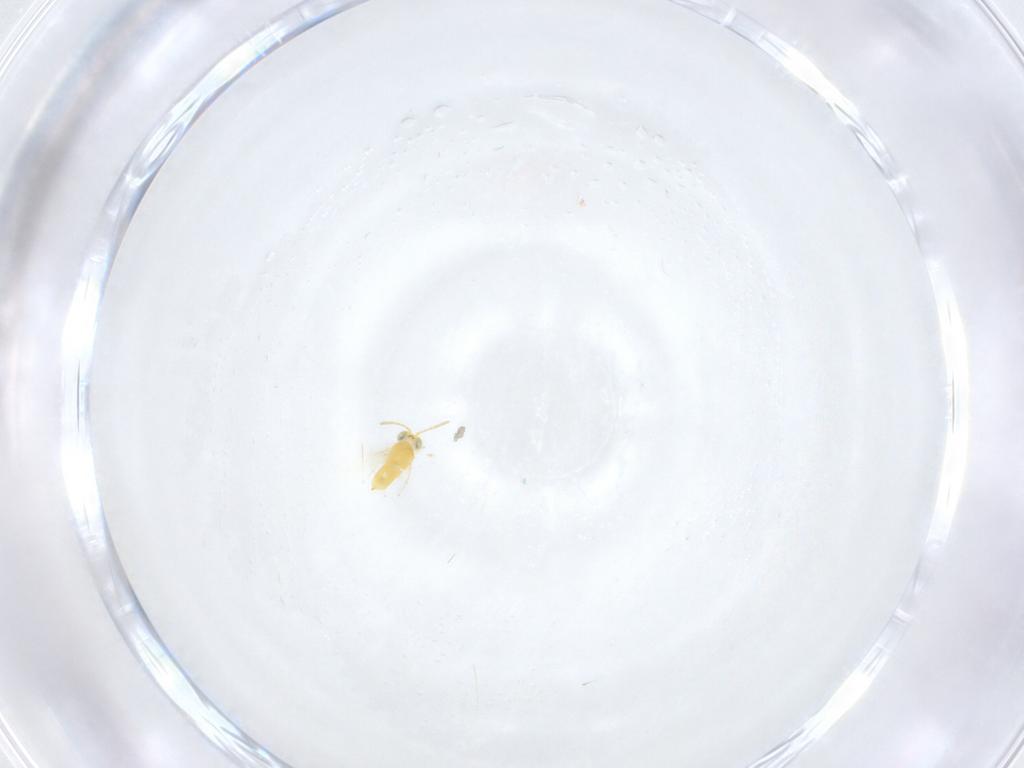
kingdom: Animalia
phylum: Arthropoda
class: Insecta
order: Hymenoptera
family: Aphelinidae
